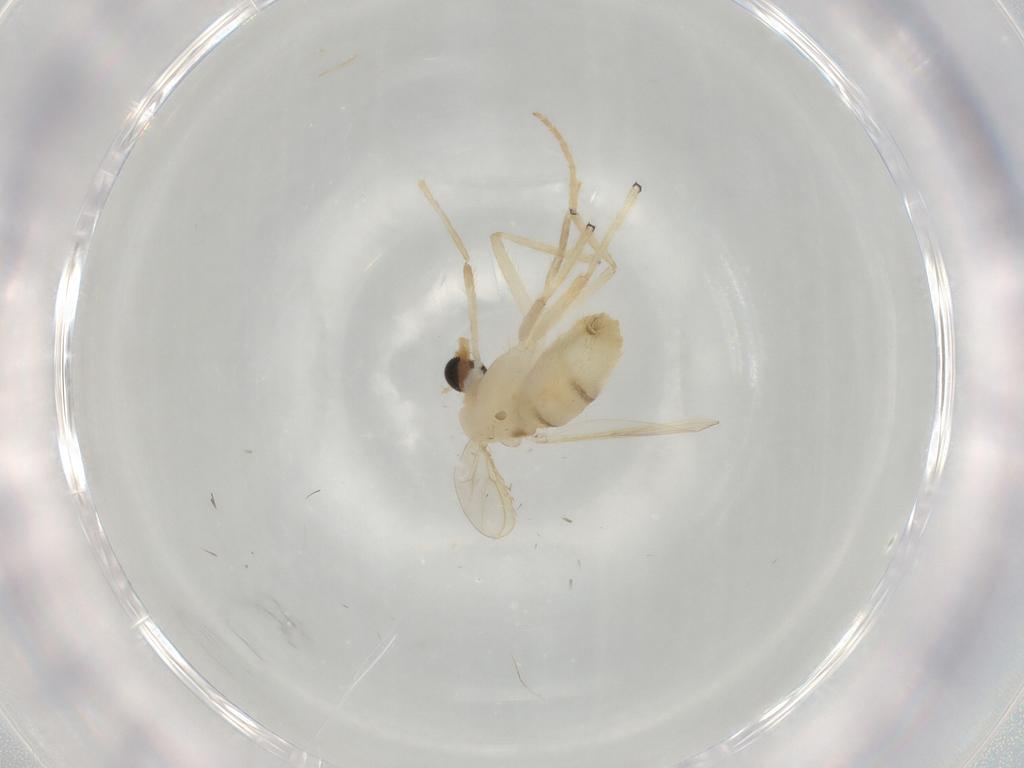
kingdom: Animalia
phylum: Arthropoda
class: Insecta
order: Diptera
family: Chironomidae
